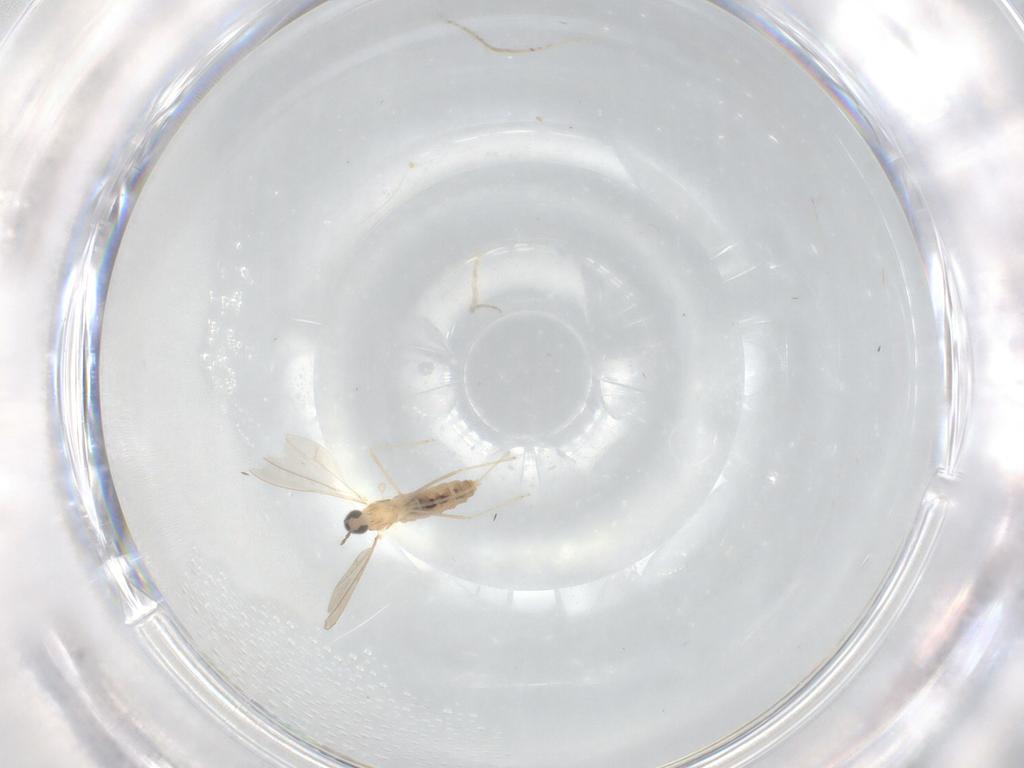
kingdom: Animalia
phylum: Arthropoda
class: Insecta
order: Diptera
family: Cecidomyiidae
